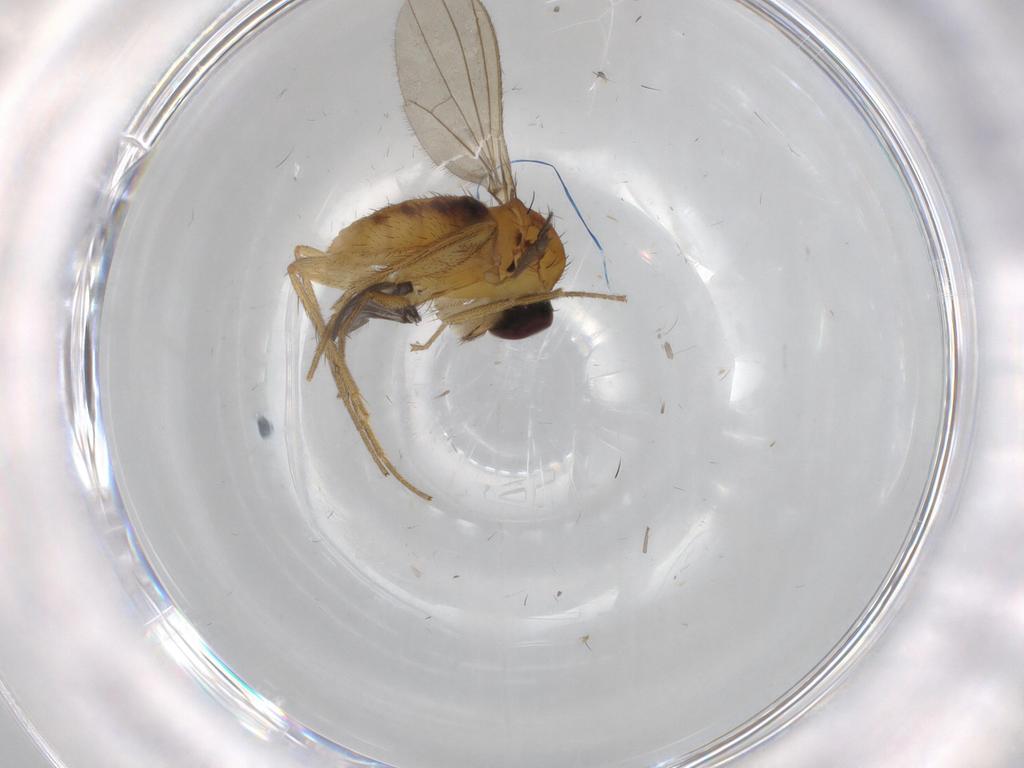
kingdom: Animalia
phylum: Arthropoda
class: Insecta
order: Diptera
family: Dolichopodidae
